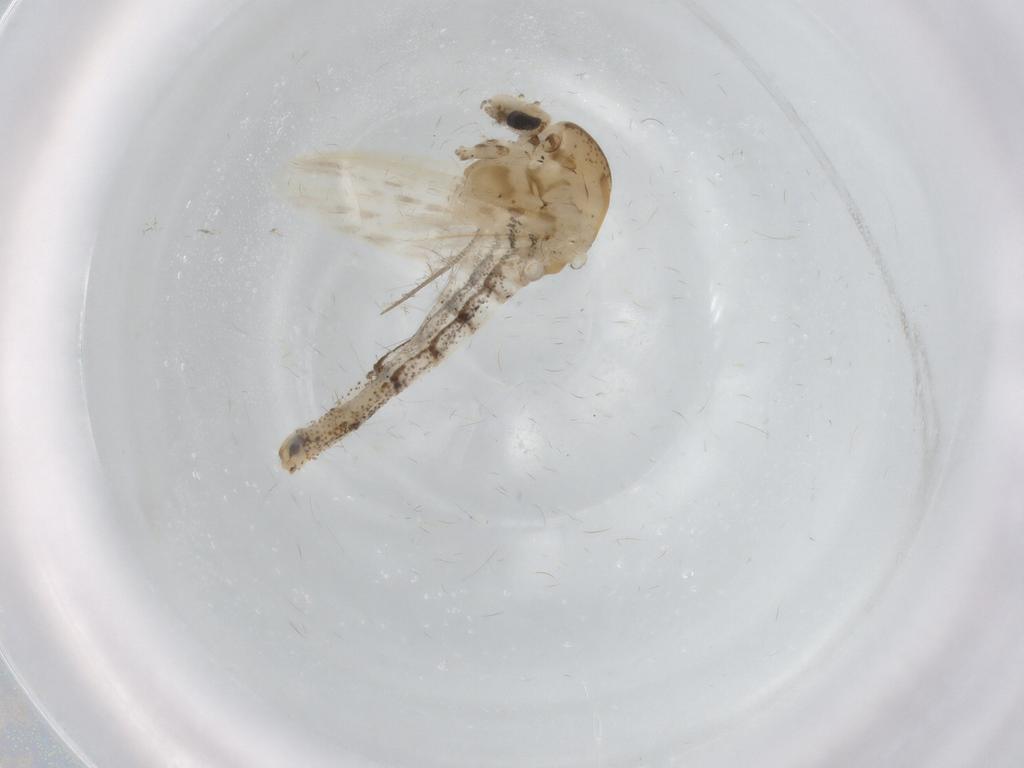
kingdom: Animalia
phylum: Arthropoda
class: Insecta
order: Diptera
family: Chaoboridae
